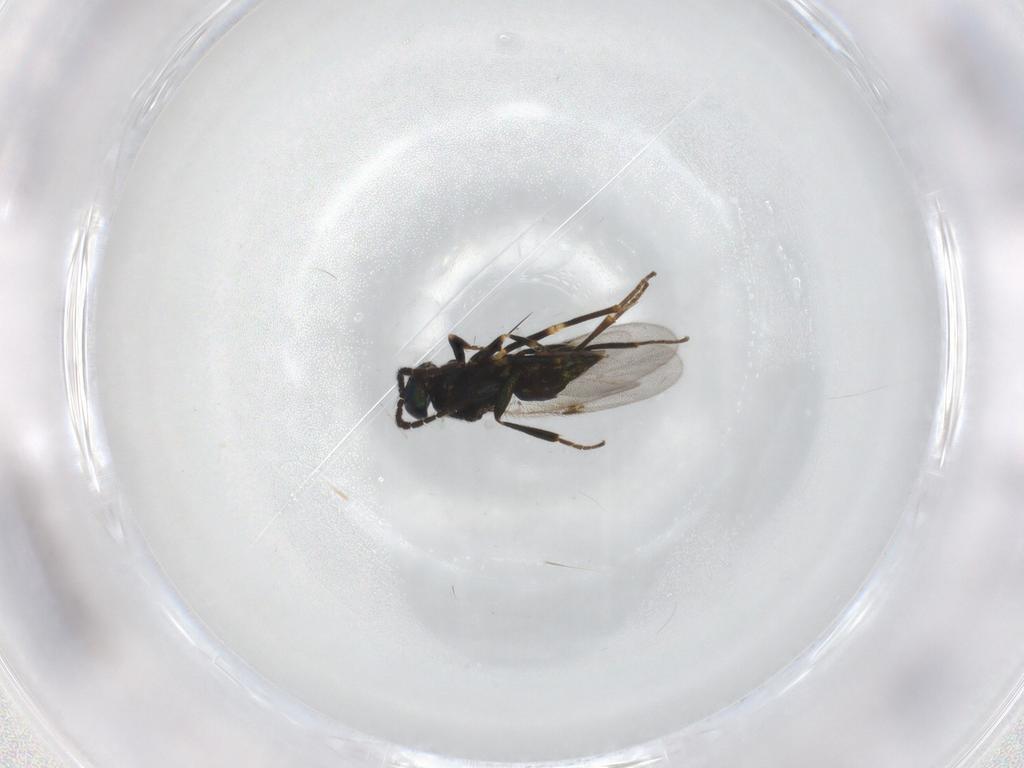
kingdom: Animalia
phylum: Arthropoda
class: Insecta
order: Hymenoptera
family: Encyrtidae
